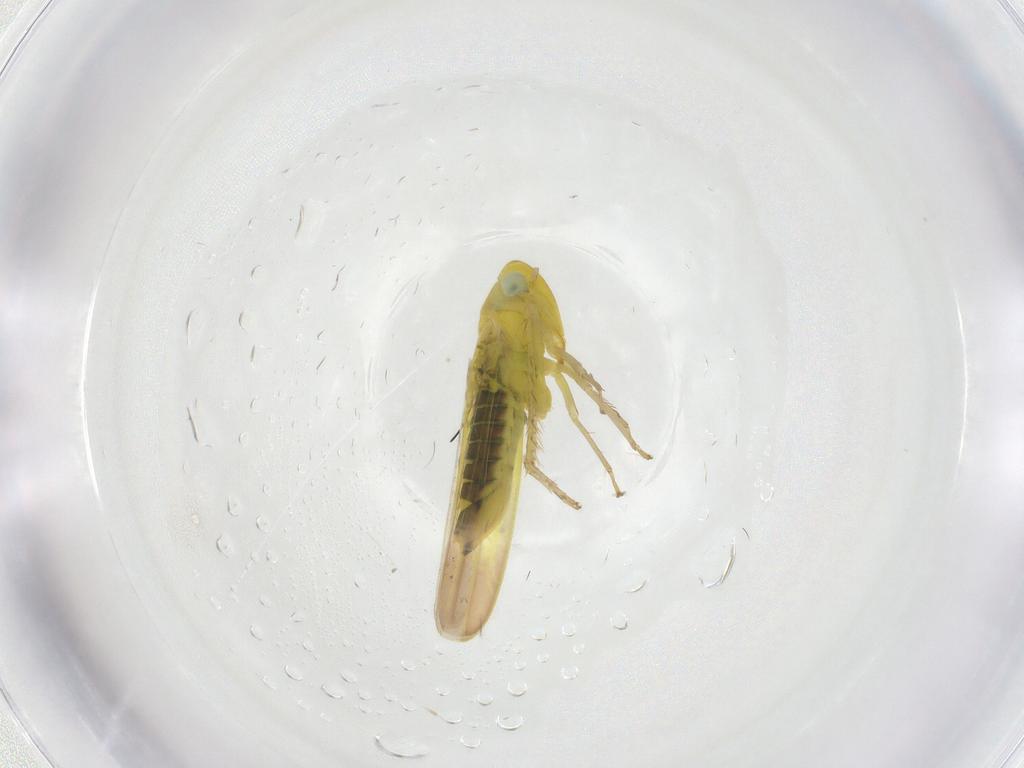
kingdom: Animalia
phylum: Arthropoda
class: Insecta
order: Hemiptera
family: Cicadellidae
